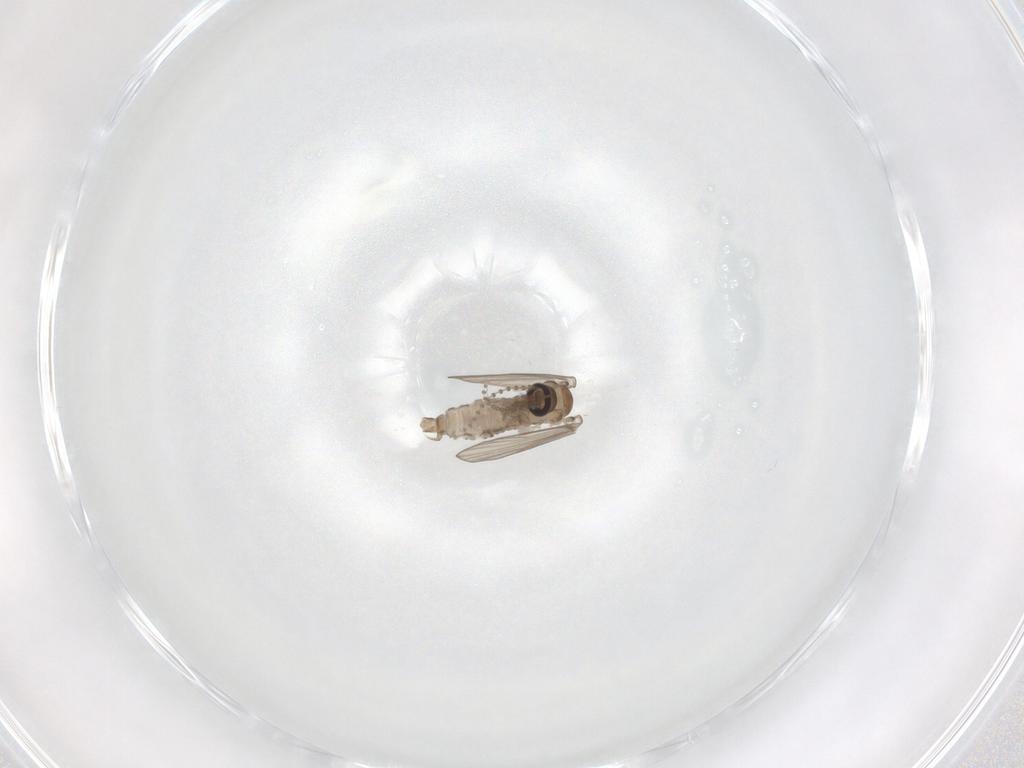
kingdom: Animalia
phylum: Arthropoda
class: Insecta
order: Diptera
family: Psychodidae
